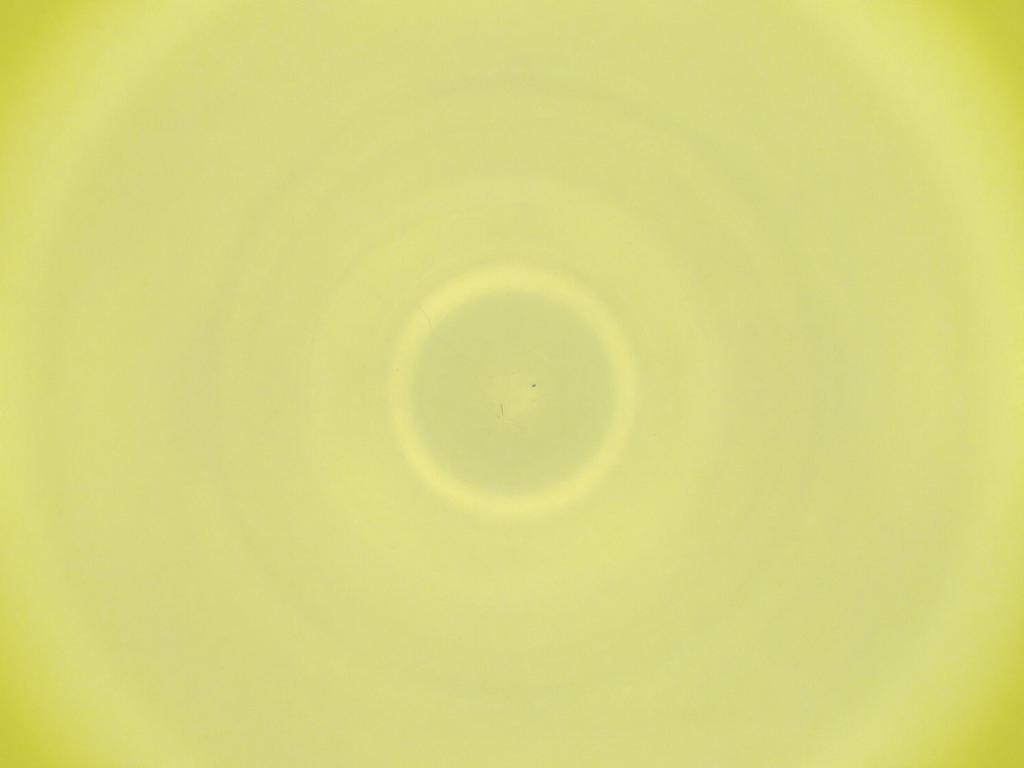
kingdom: Animalia
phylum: Arthropoda
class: Insecta
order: Diptera
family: Cecidomyiidae
